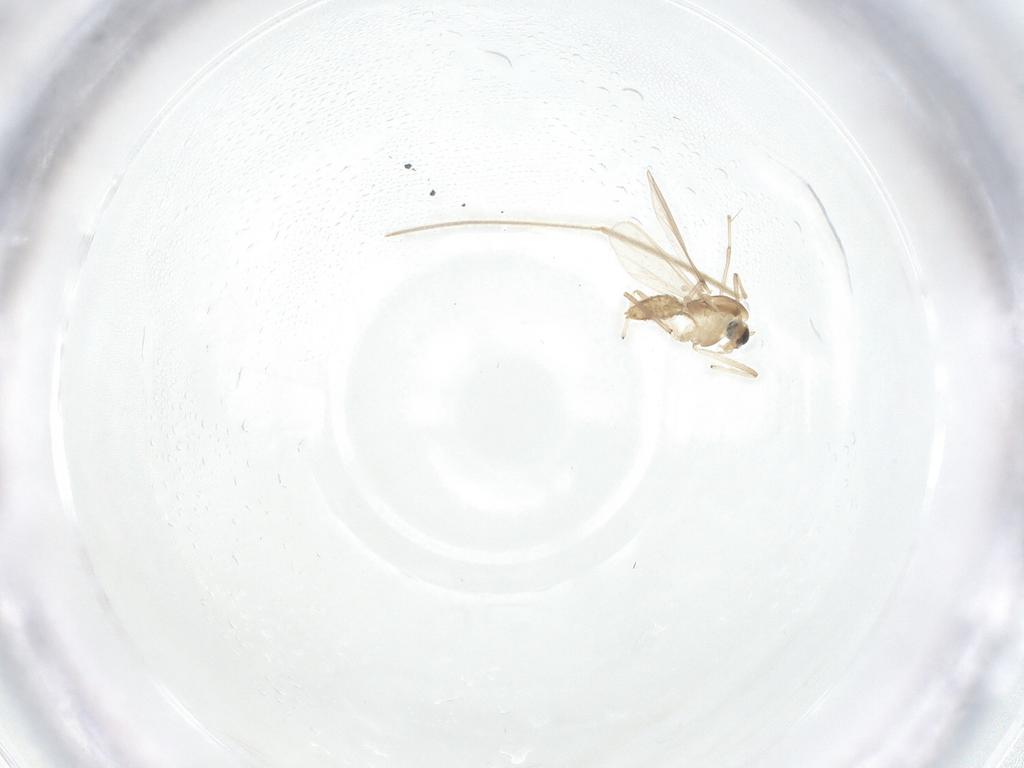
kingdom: Animalia
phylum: Arthropoda
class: Insecta
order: Diptera
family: Chironomidae
